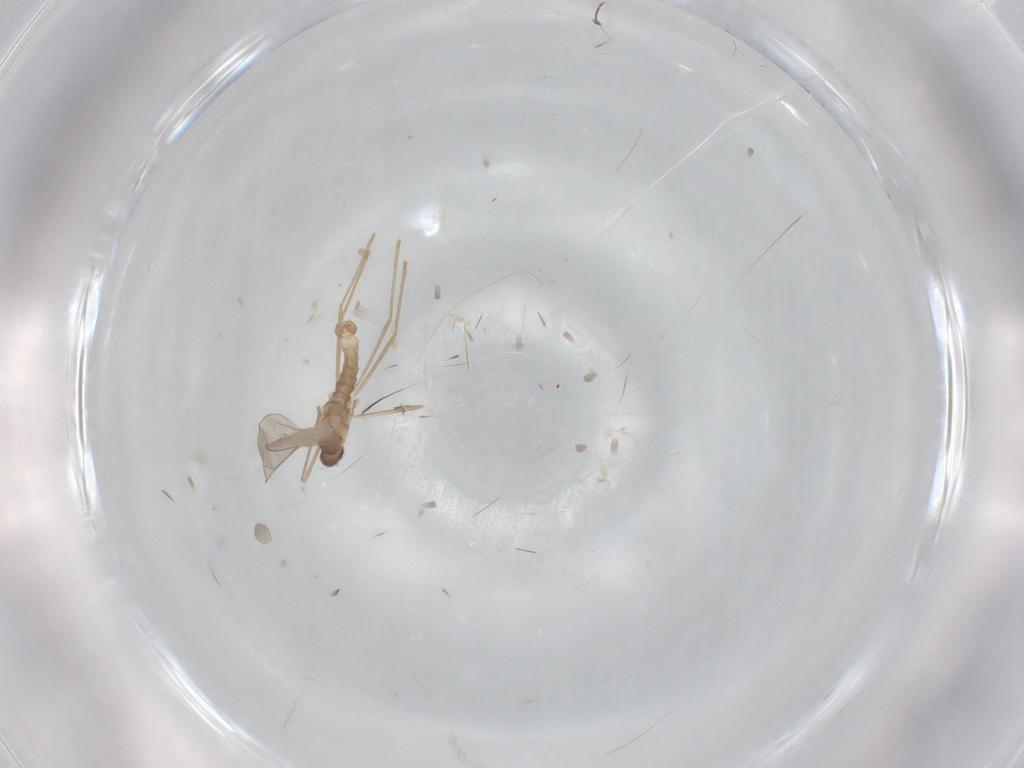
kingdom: Animalia
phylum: Arthropoda
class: Insecta
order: Diptera
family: Cecidomyiidae
